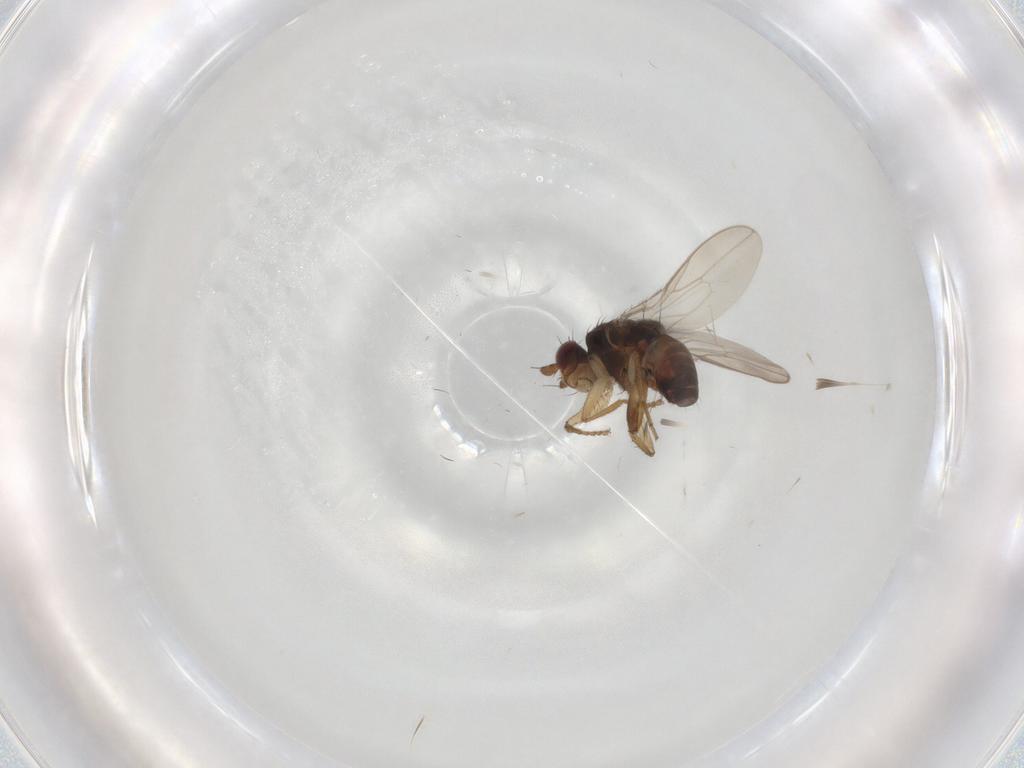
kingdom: Animalia
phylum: Arthropoda
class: Insecta
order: Diptera
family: Sphaeroceridae
